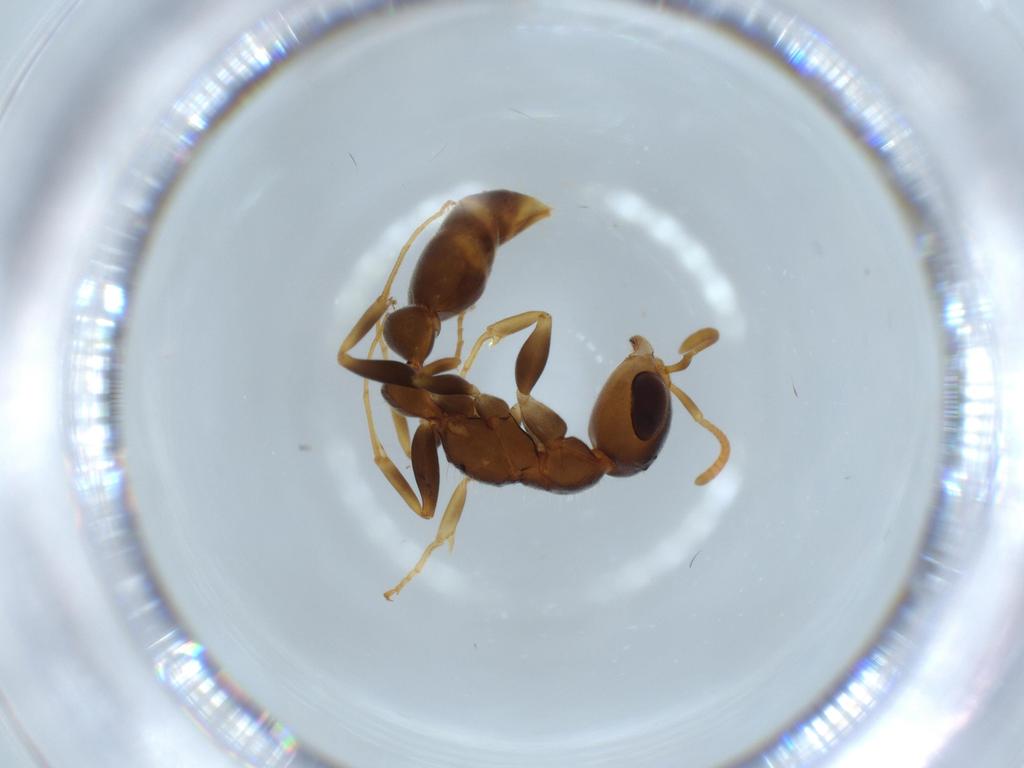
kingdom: Animalia
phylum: Arthropoda
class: Insecta
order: Hymenoptera
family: Formicidae
